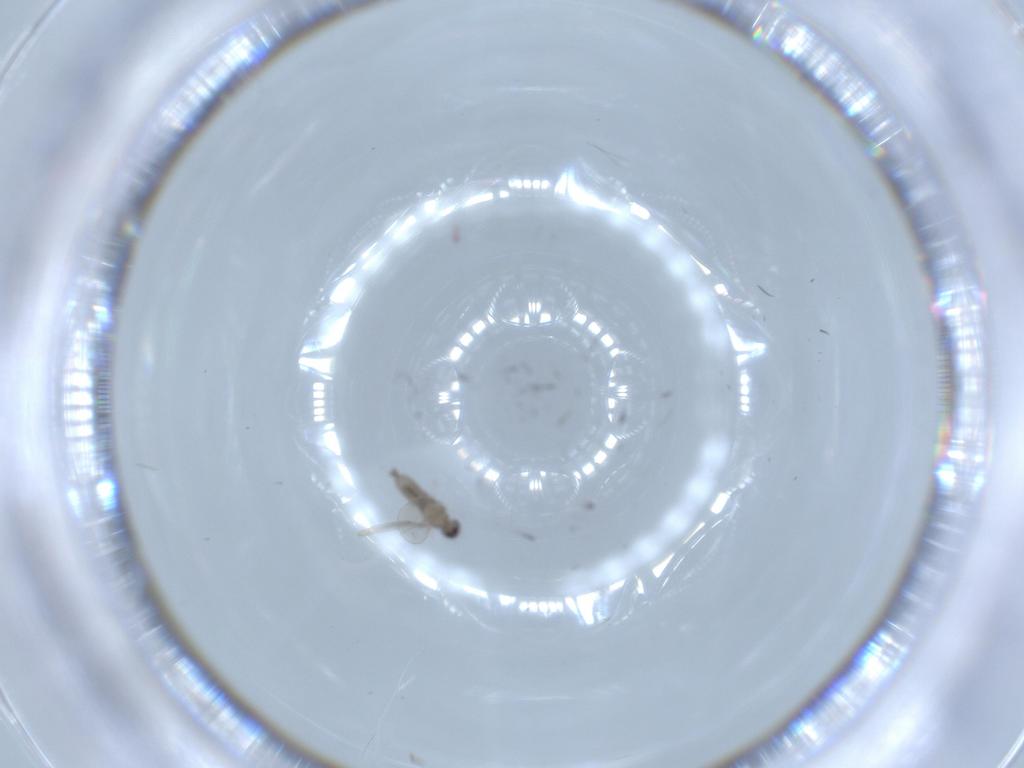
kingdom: Animalia
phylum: Arthropoda
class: Insecta
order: Diptera
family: Cecidomyiidae
